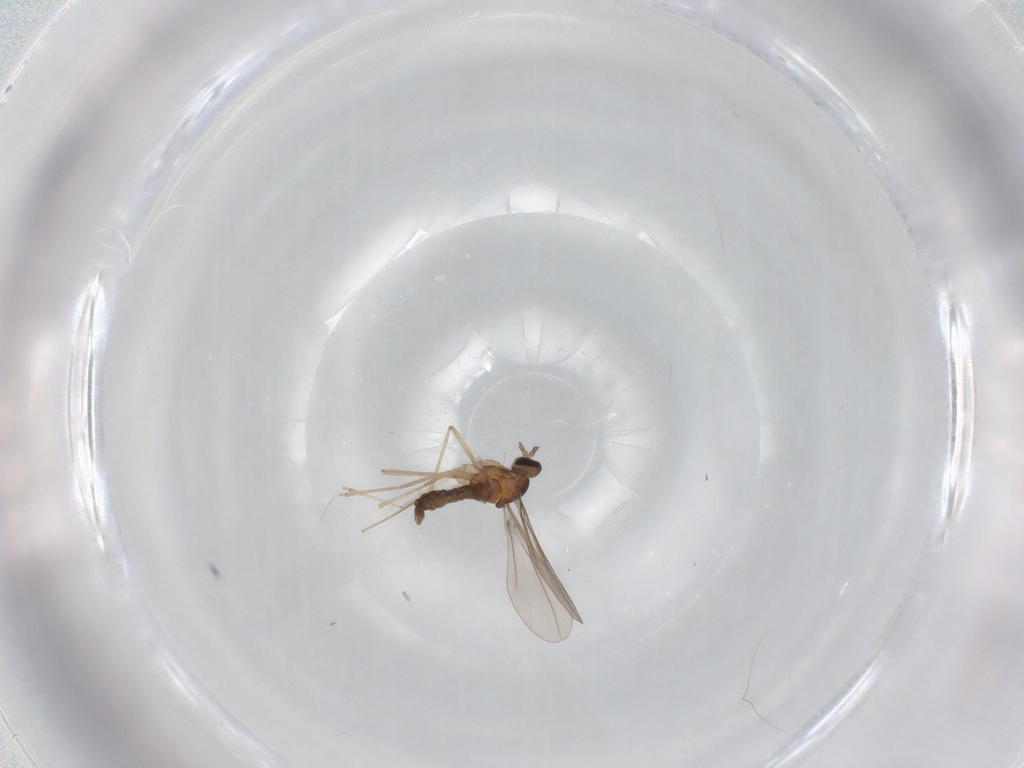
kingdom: Animalia
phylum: Arthropoda
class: Insecta
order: Diptera
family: Cecidomyiidae
